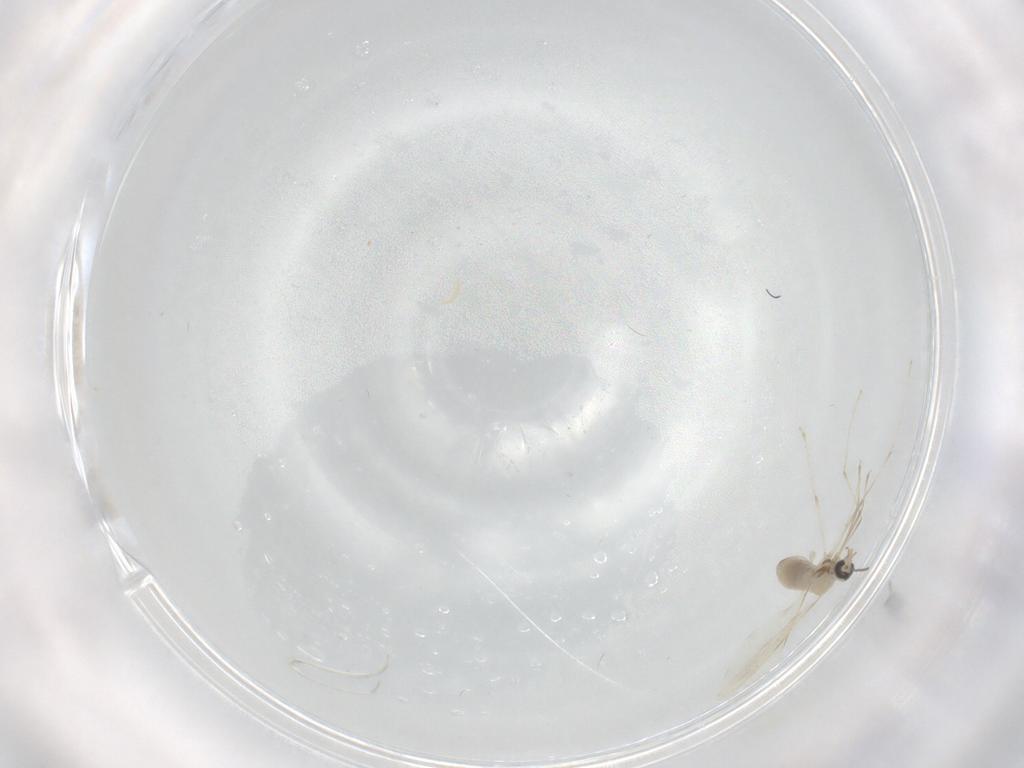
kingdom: Animalia
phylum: Arthropoda
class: Insecta
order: Diptera
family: Cecidomyiidae
